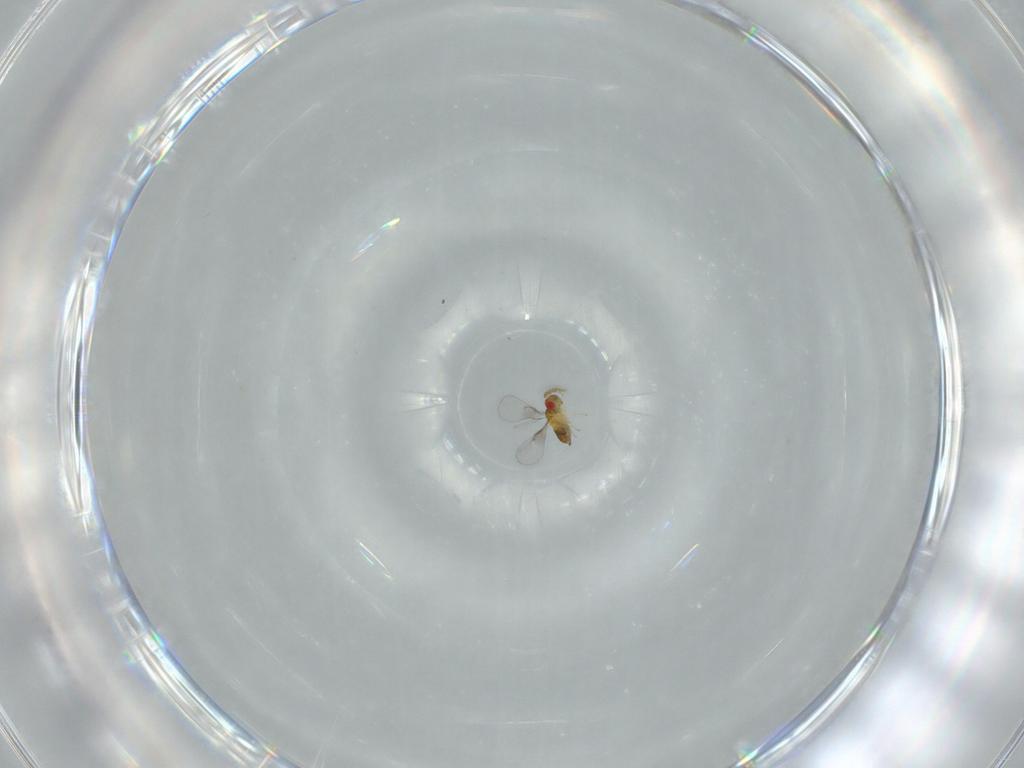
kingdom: Animalia
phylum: Arthropoda
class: Insecta
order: Hymenoptera
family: Trichogrammatidae
